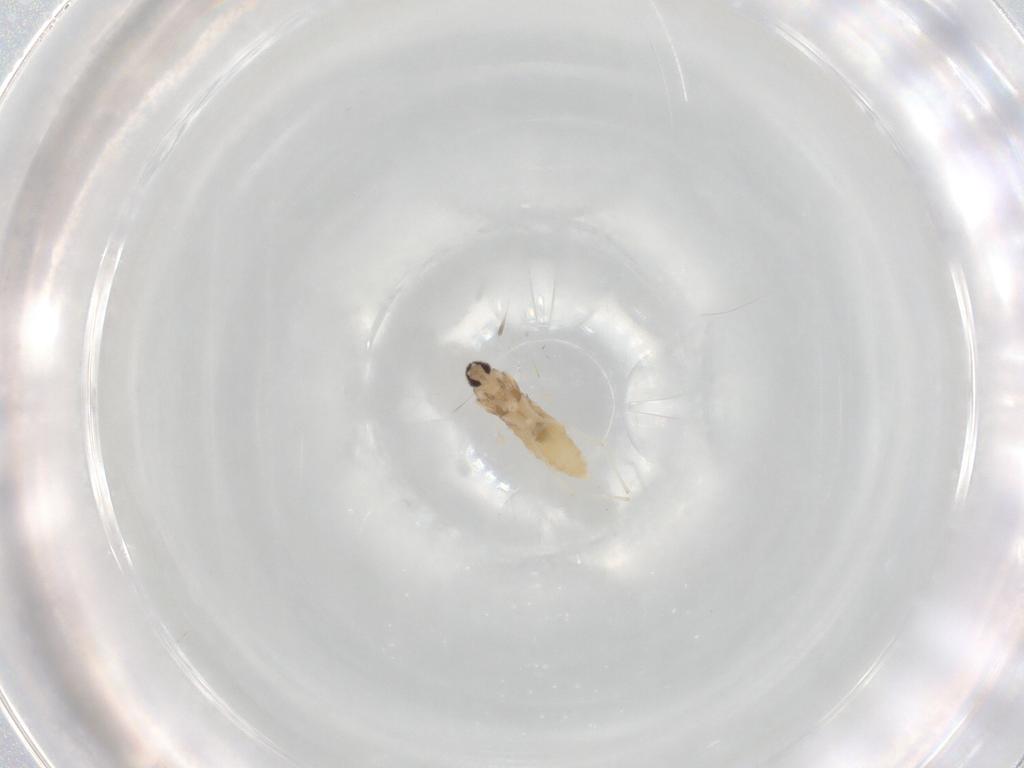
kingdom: Animalia
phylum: Arthropoda
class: Insecta
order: Diptera
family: Cecidomyiidae
